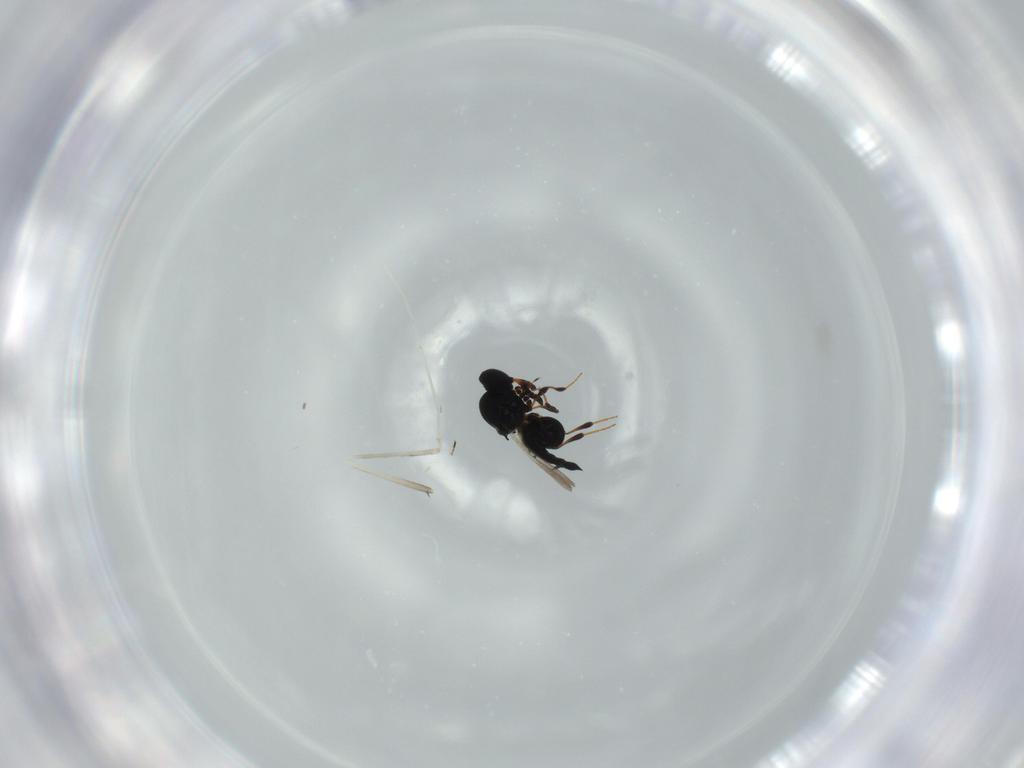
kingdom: Animalia
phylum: Arthropoda
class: Insecta
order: Hymenoptera
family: Platygastridae
